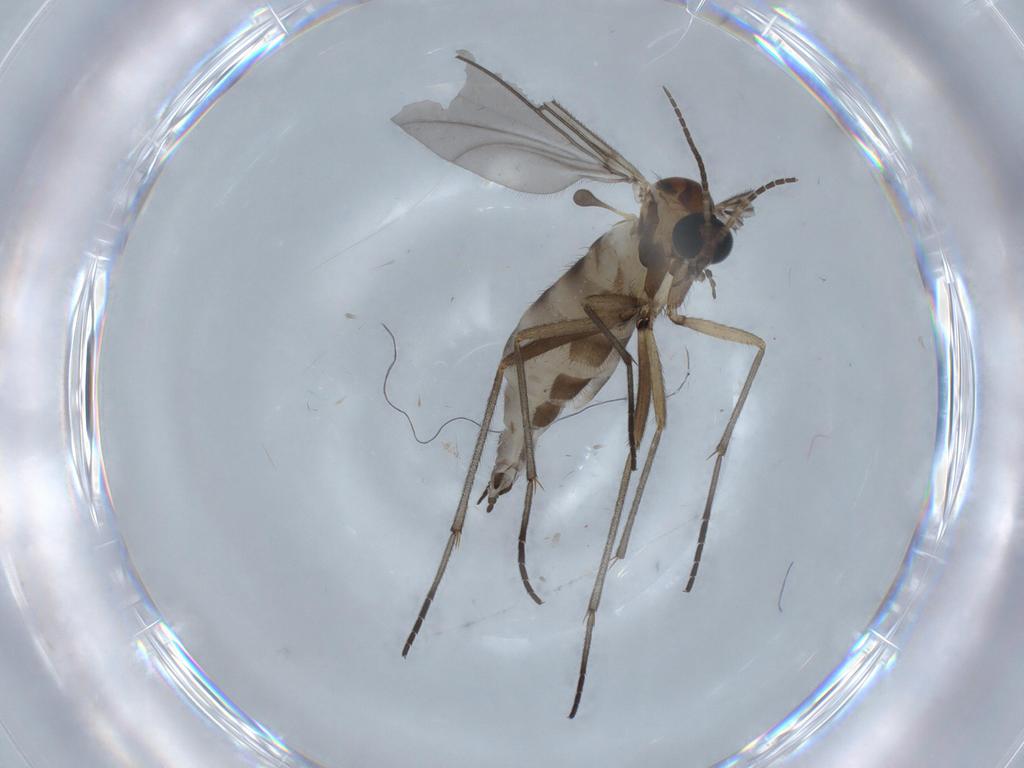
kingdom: Animalia
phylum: Arthropoda
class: Insecta
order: Diptera
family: Sciaridae
